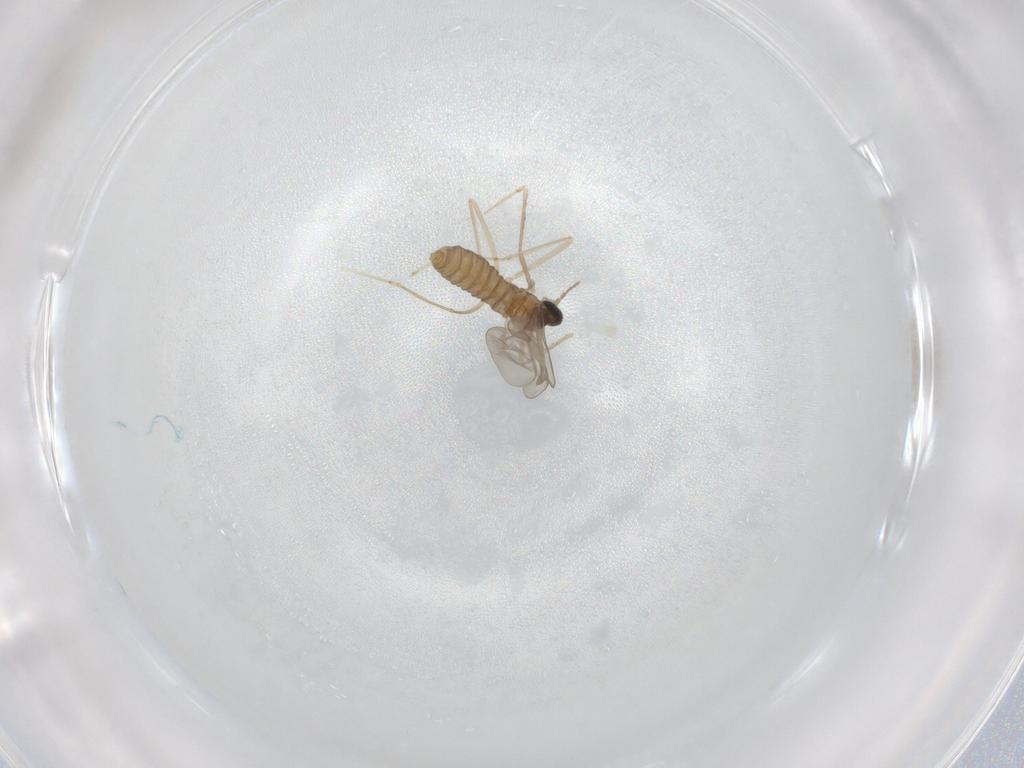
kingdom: Animalia
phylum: Arthropoda
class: Insecta
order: Diptera
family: Cecidomyiidae
